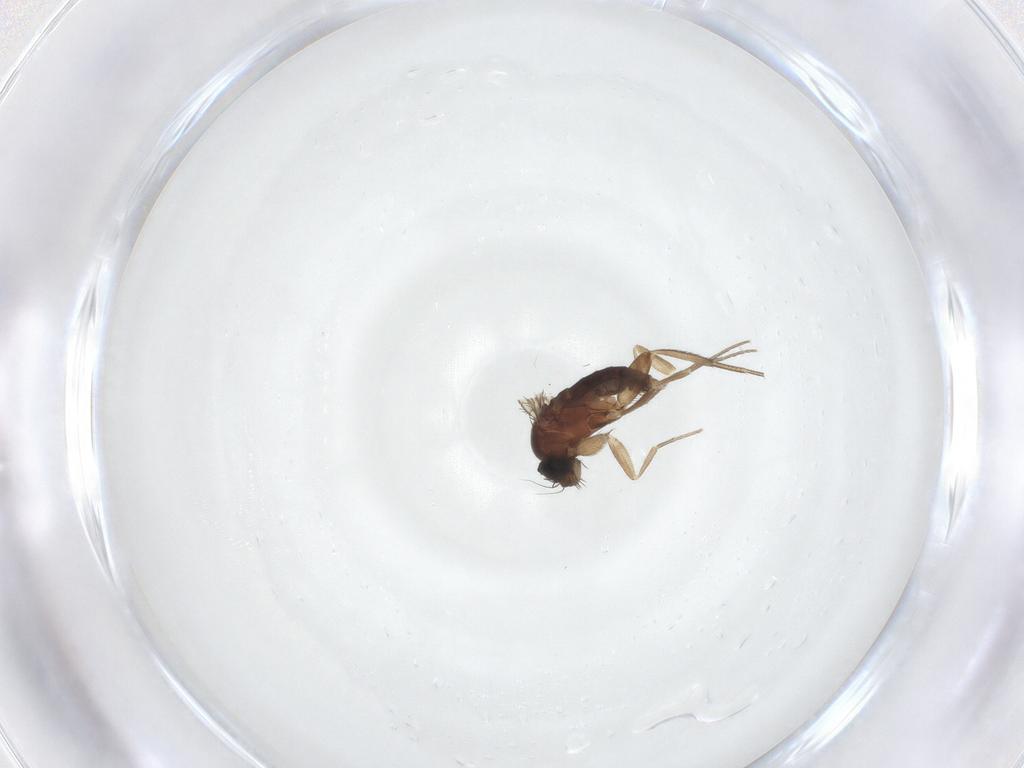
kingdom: Animalia
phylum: Arthropoda
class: Insecta
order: Diptera
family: Phoridae
